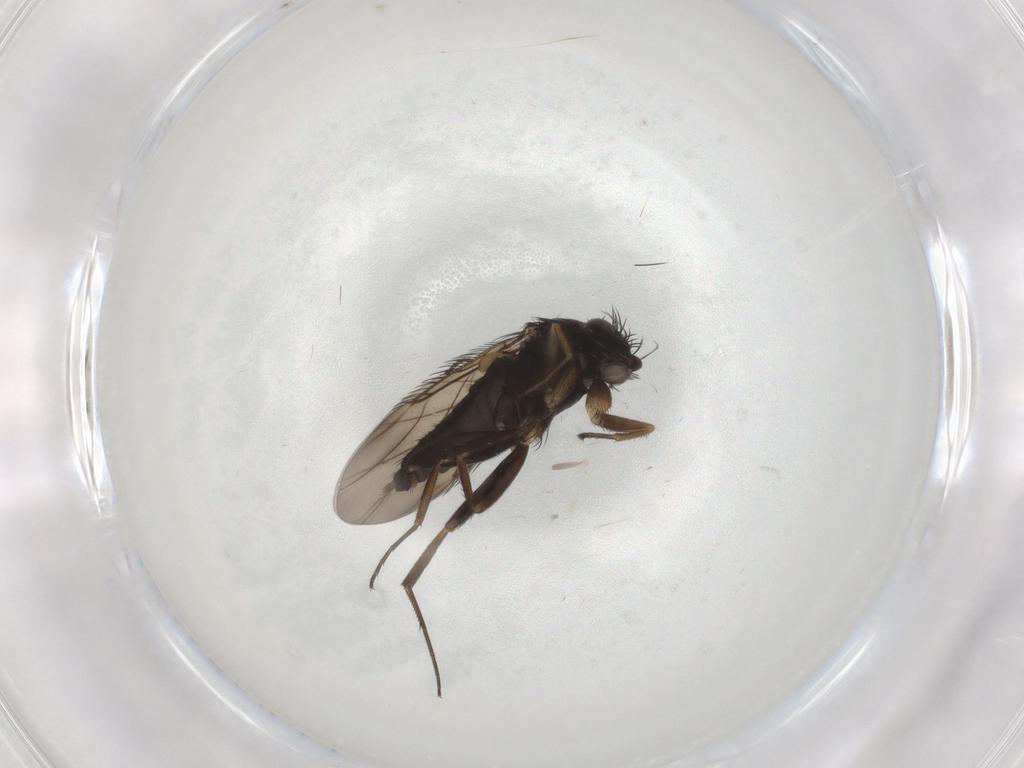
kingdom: Animalia
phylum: Arthropoda
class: Insecta
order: Diptera
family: Phoridae
